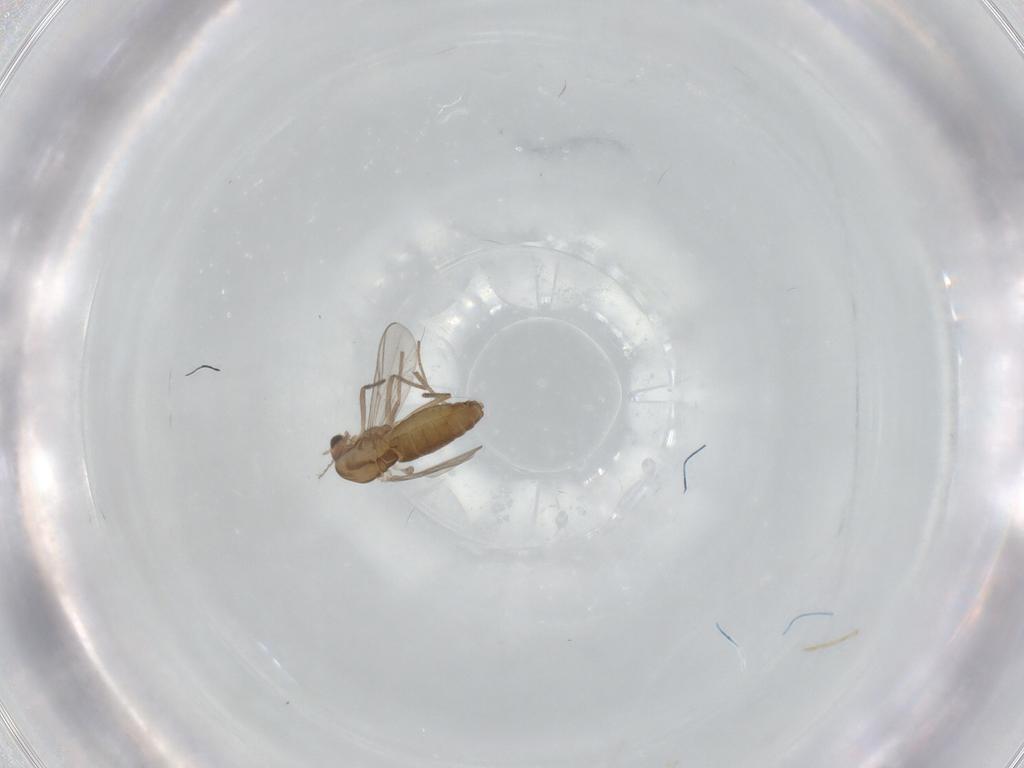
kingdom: Animalia
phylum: Arthropoda
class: Insecta
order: Diptera
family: Chironomidae
